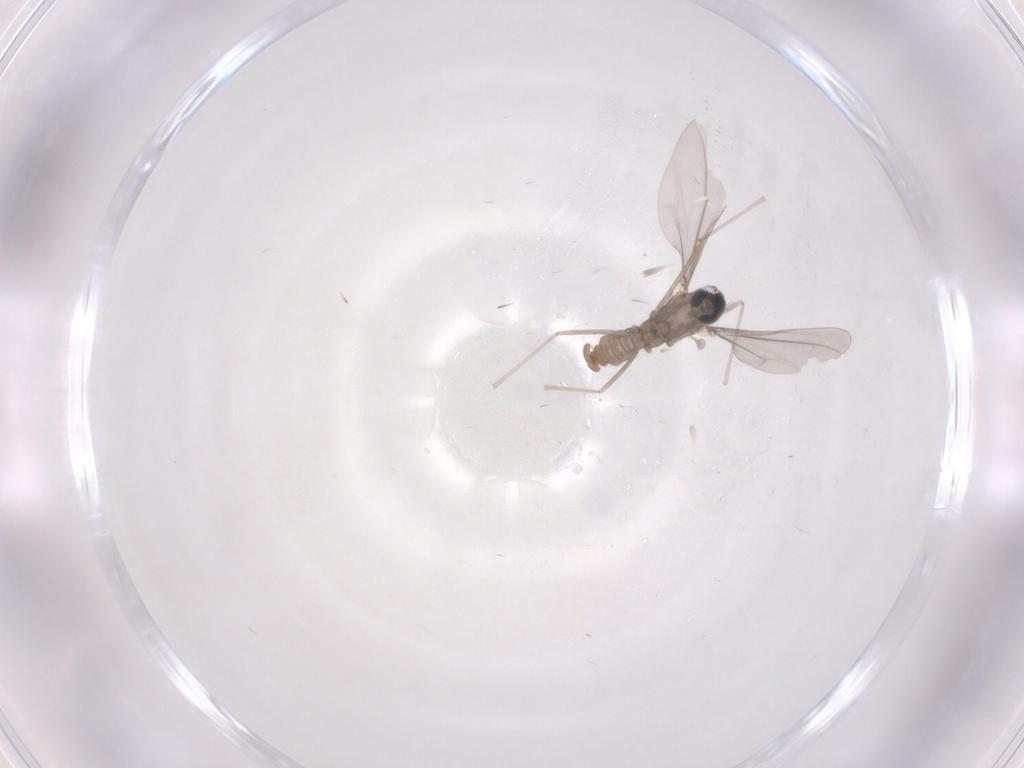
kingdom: Animalia
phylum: Arthropoda
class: Insecta
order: Diptera
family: Cecidomyiidae
